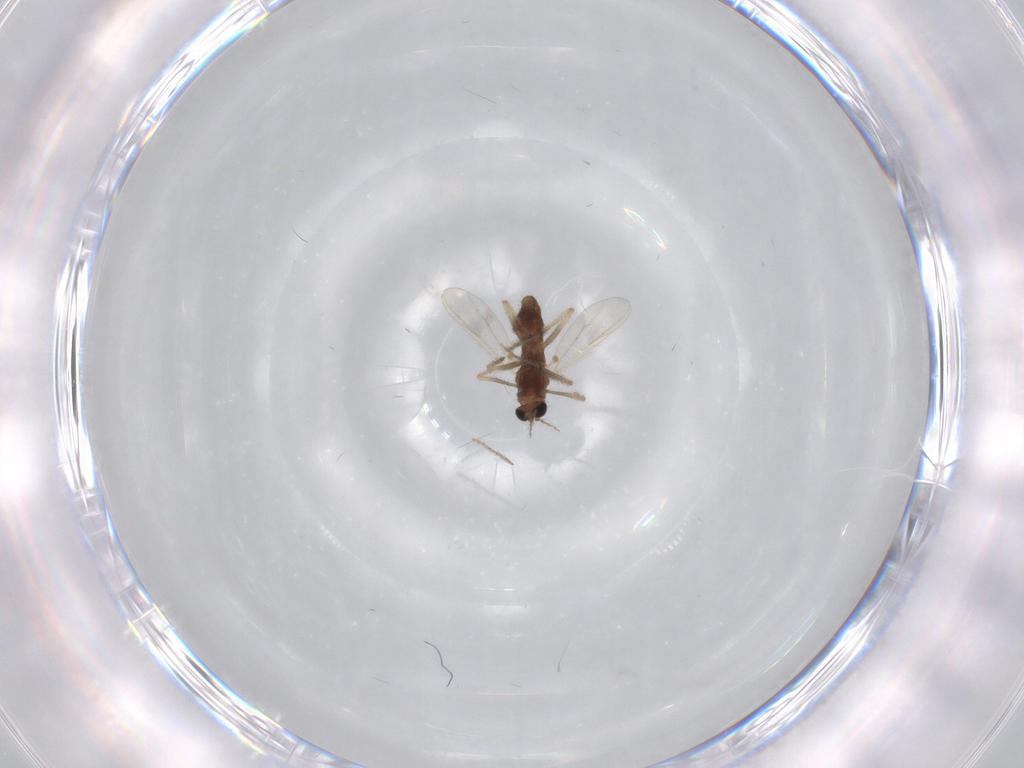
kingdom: Animalia
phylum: Arthropoda
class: Insecta
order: Diptera
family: Chironomidae
